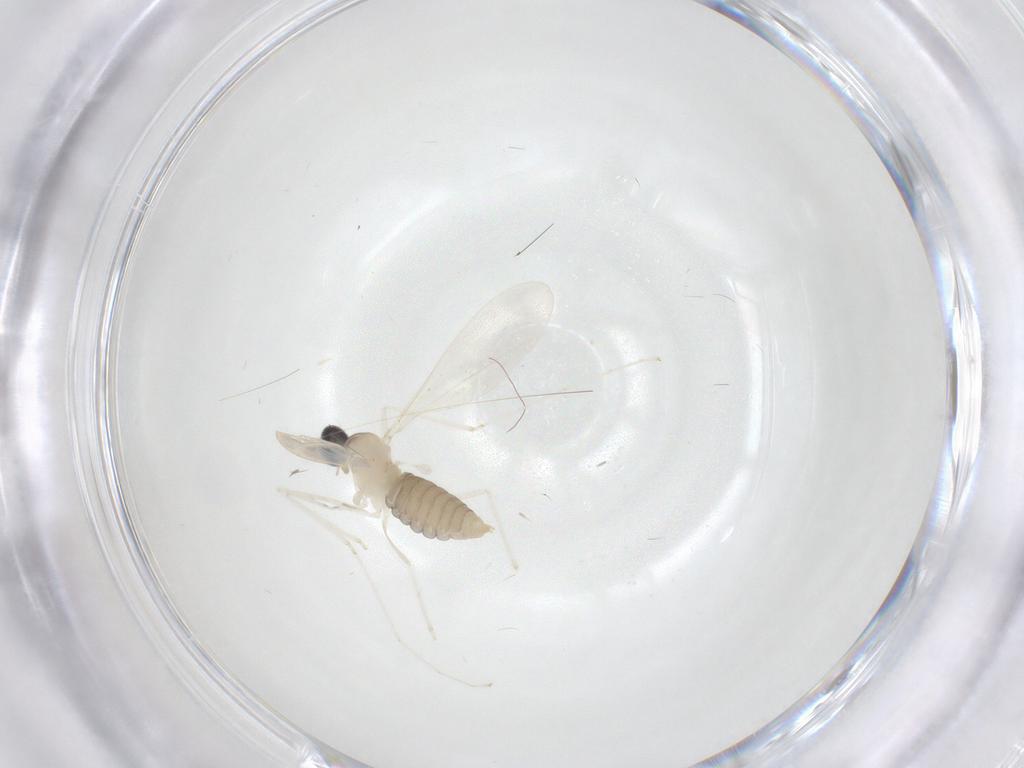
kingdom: Animalia
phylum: Arthropoda
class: Insecta
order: Diptera
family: Cecidomyiidae
